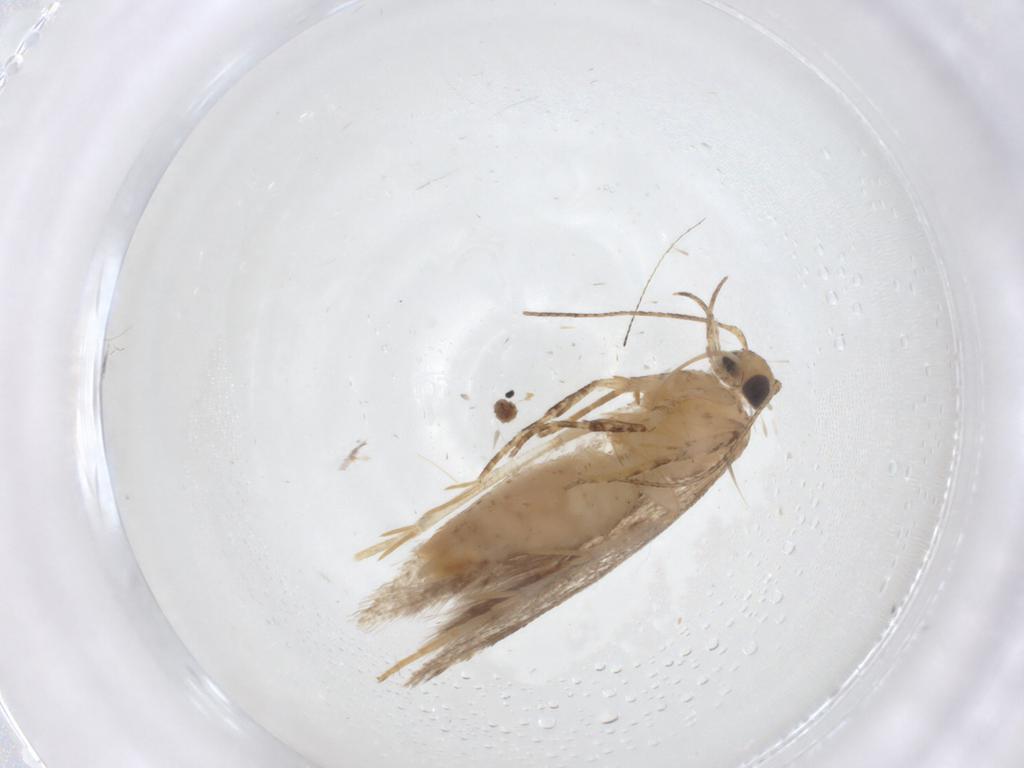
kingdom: Animalia
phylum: Arthropoda
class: Insecta
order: Lepidoptera
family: Gelechiidae
